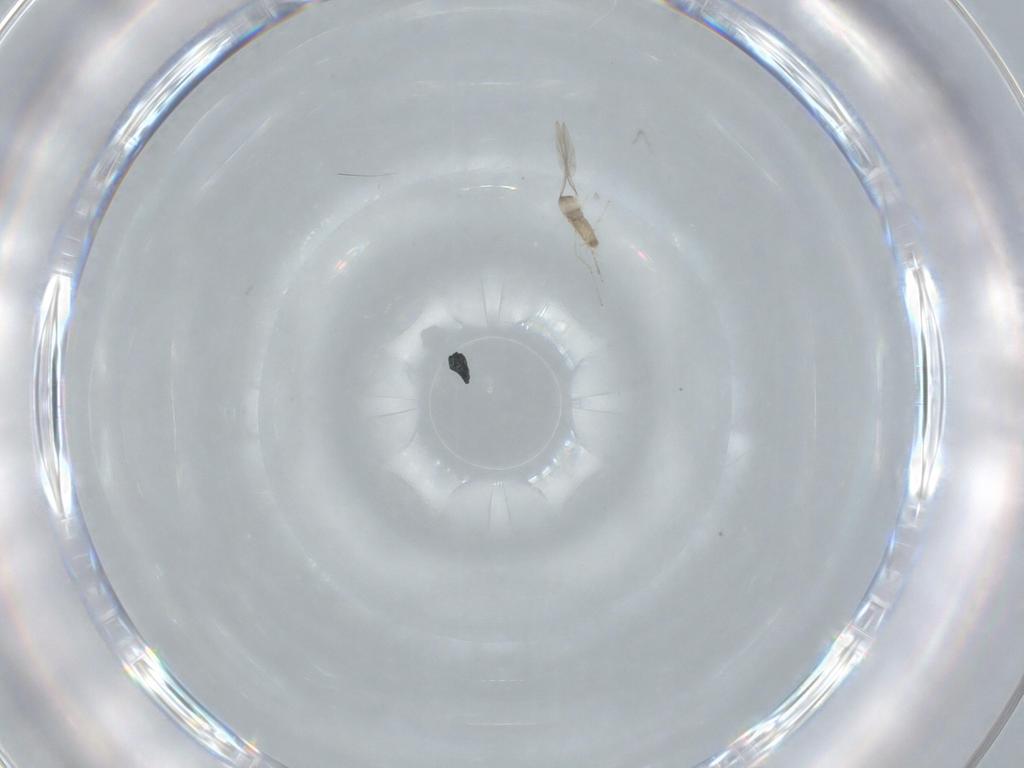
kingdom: Animalia
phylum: Arthropoda
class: Insecta
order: Diptera
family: Cecidomyiidae
